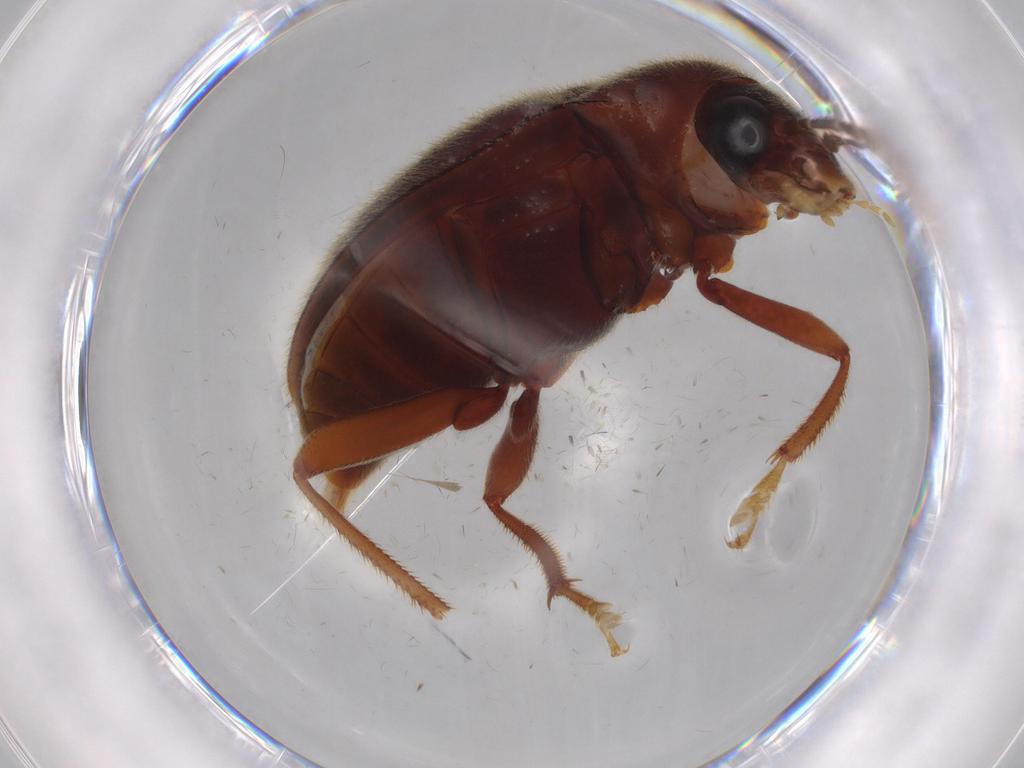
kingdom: Animalia
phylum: Arthropoda
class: Insecta
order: Coleoptera
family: Ptilodactylidae
